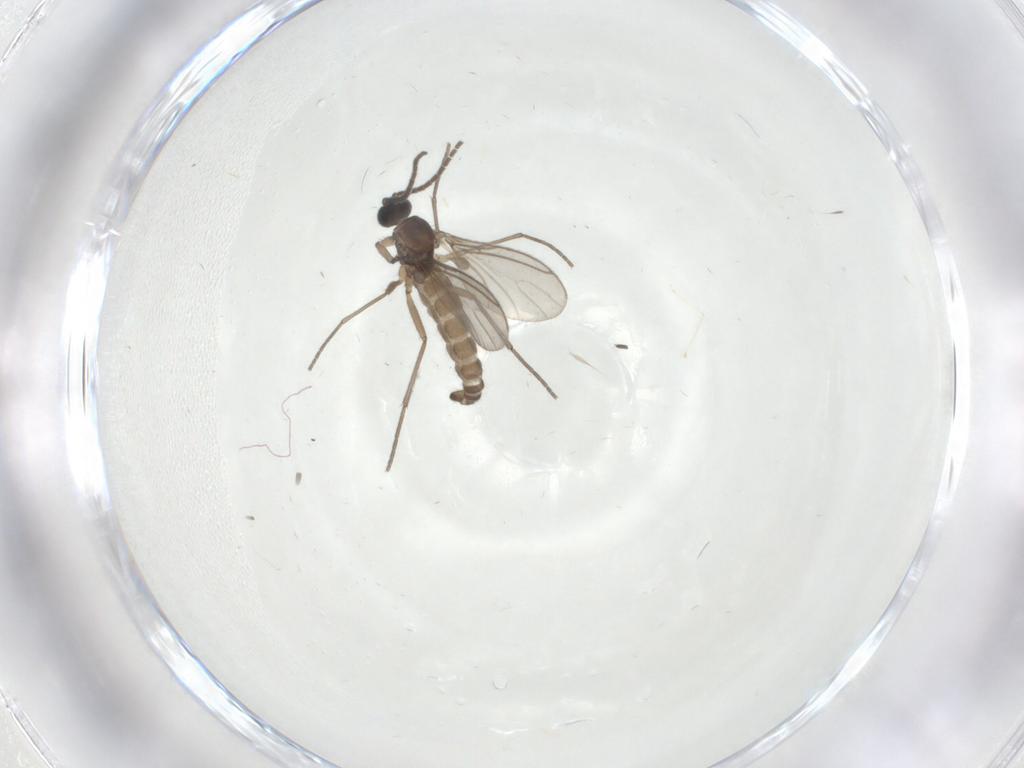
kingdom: Animalia
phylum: Arthropoda
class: Insecta
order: Diptera
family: Sciaridae
